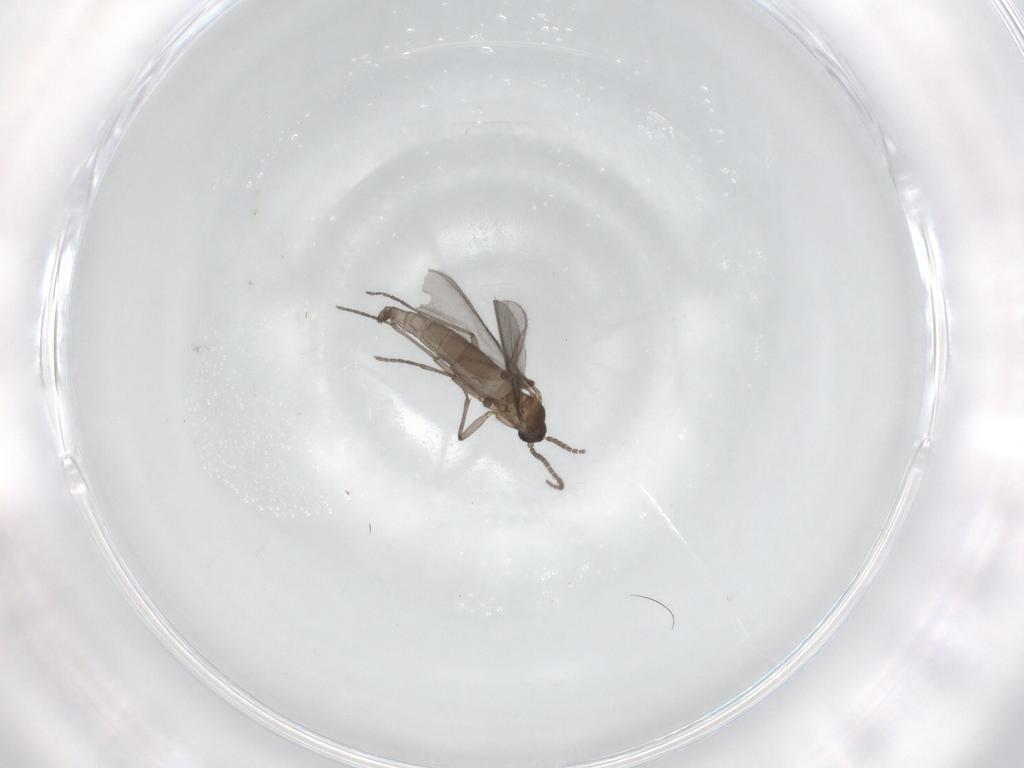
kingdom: Animalia
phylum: Arthropoda
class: Insecta
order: Diptera
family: Sciaridae
